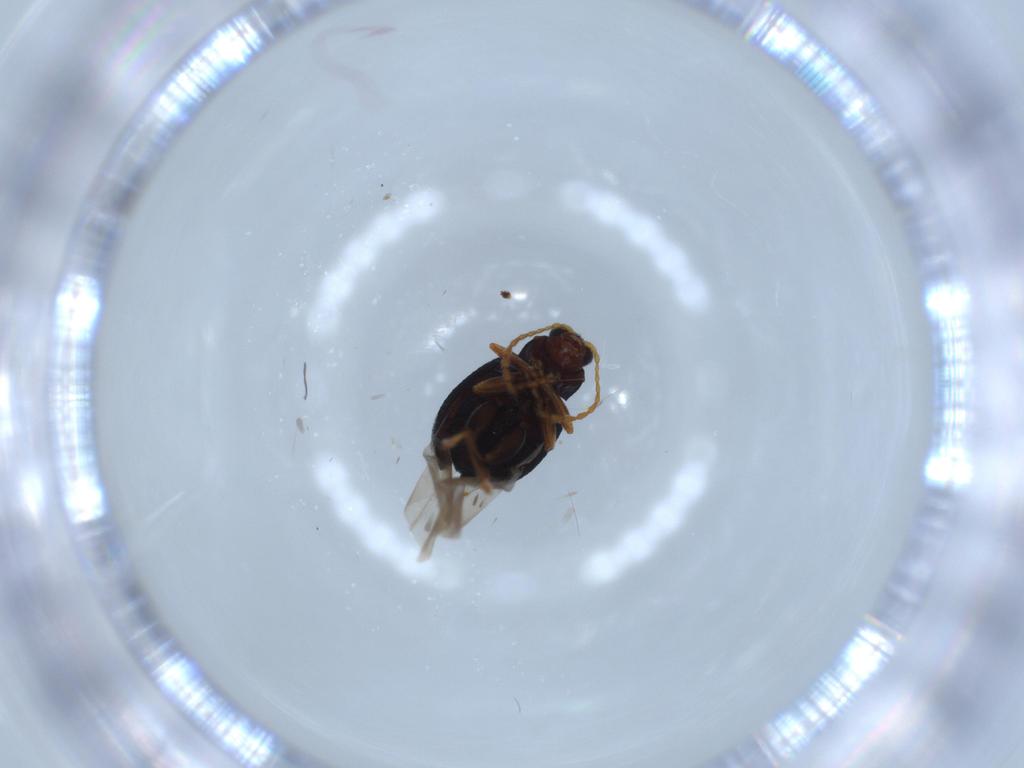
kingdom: Animalia
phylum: Arthropoda
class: Insecta
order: Coleoptera
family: Chrysomelidae
